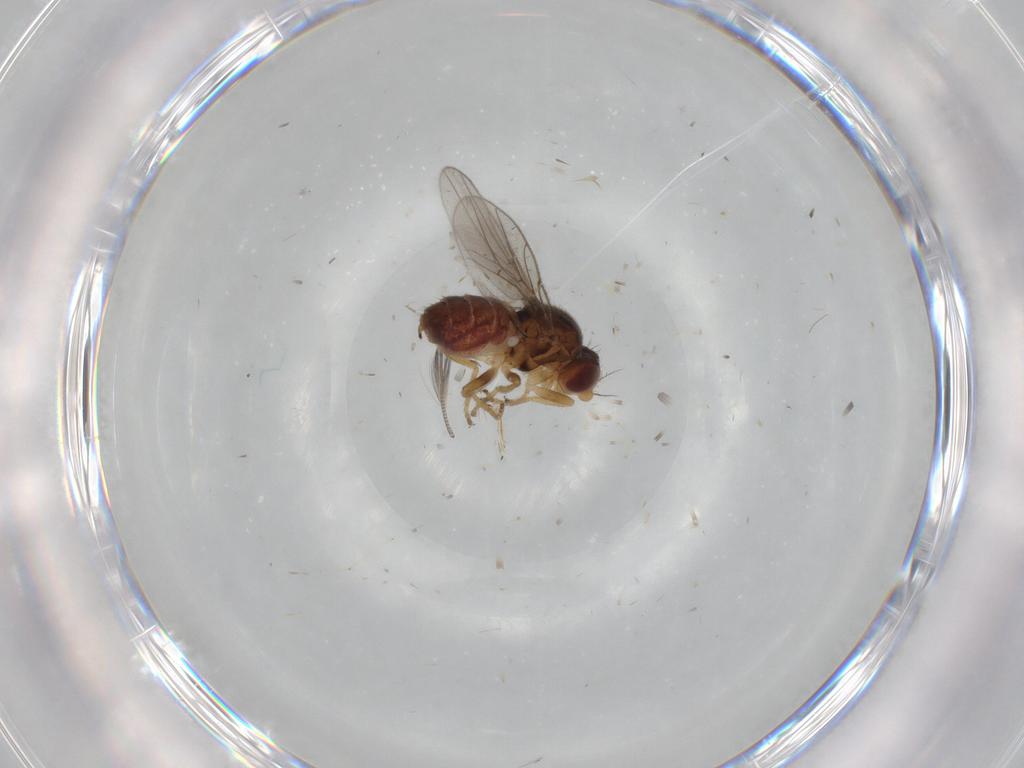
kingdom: Animalia
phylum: Arthropoda
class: Insecta
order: Diptera
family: Chloropidae
